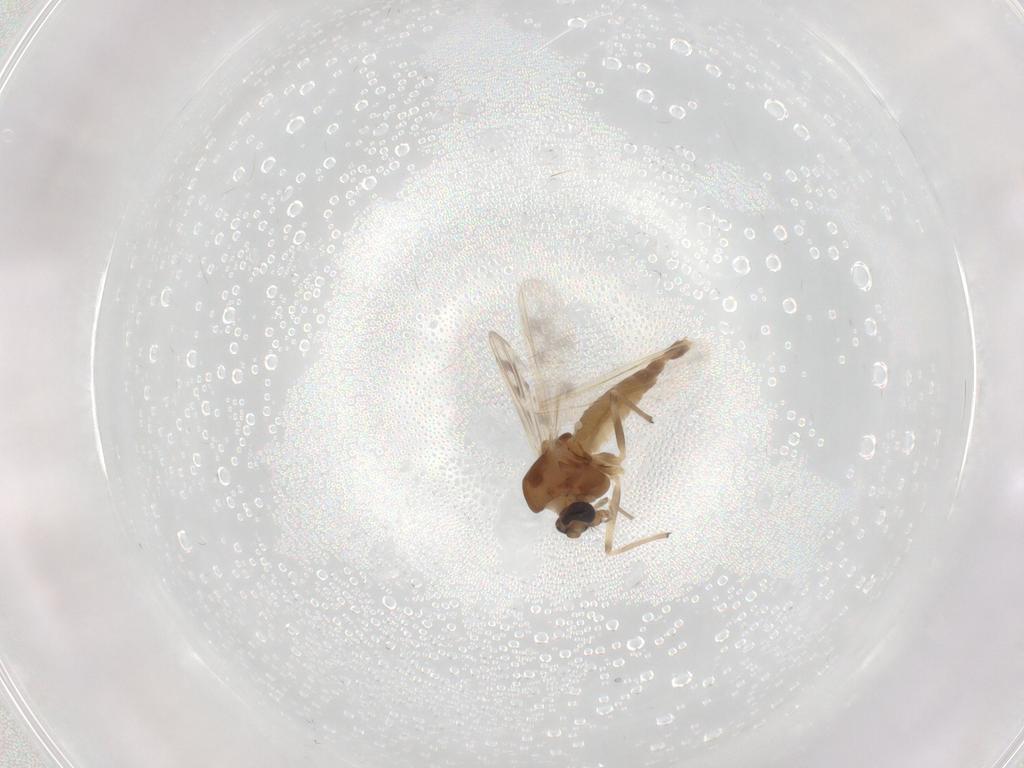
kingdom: Animalia
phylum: Arthropoda
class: Insecta
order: Diptera
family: Chironomidae
